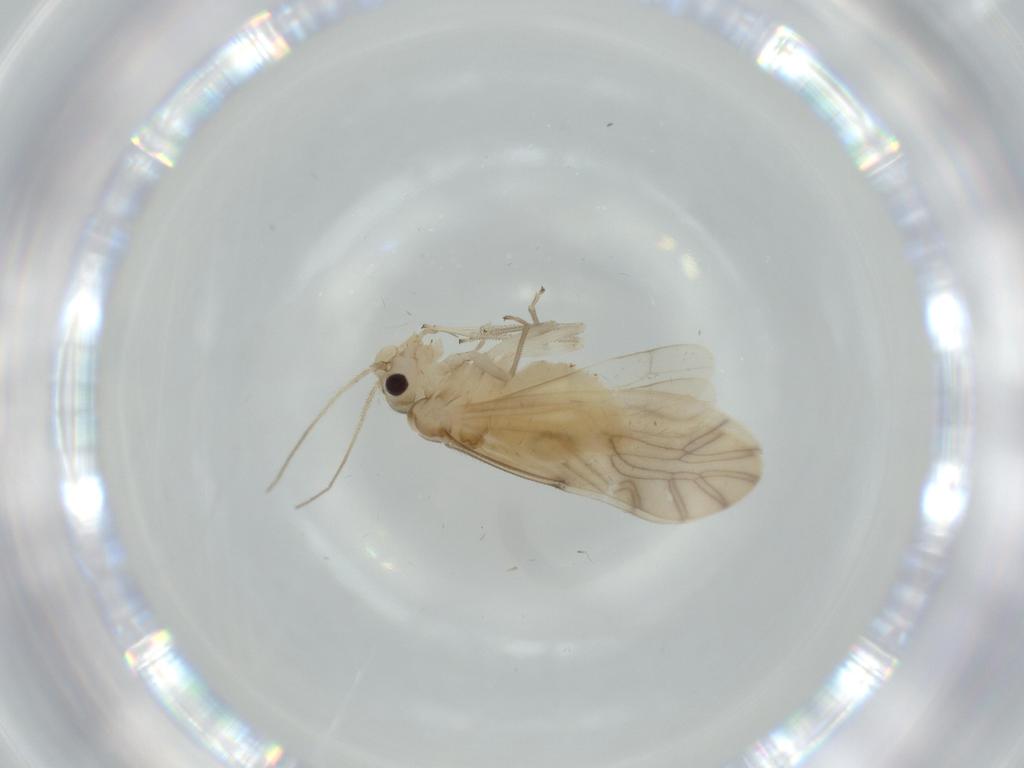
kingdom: Animalia
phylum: Arthropoda
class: Insecta
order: Psocodea
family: Caeciliusidae
